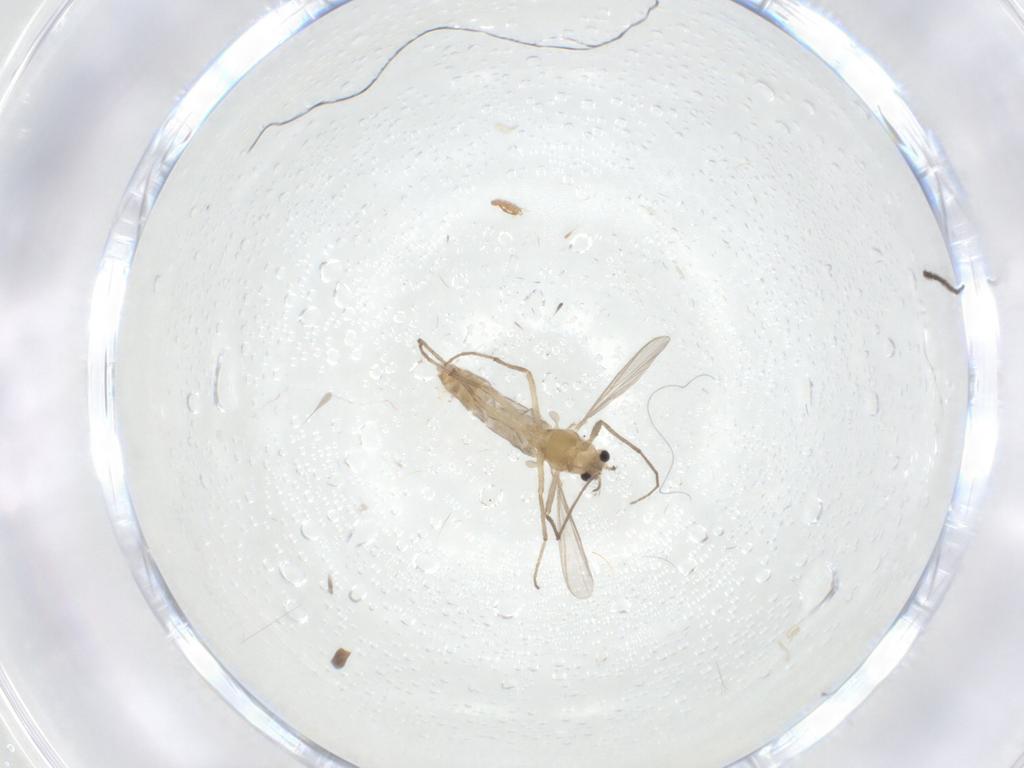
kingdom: Animalia
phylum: Arthropoda
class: Insecta
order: Diptera
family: Chironomidae
